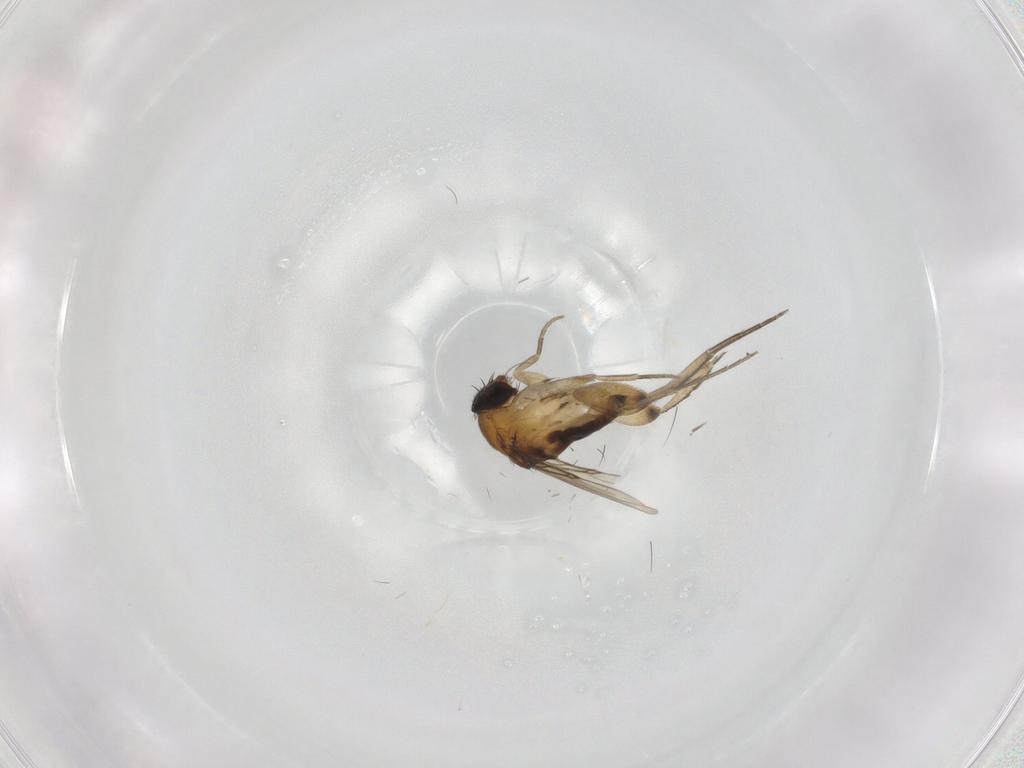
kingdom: Animalia
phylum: Arthropoda
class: Insecta
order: Diptera
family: Phoridae
